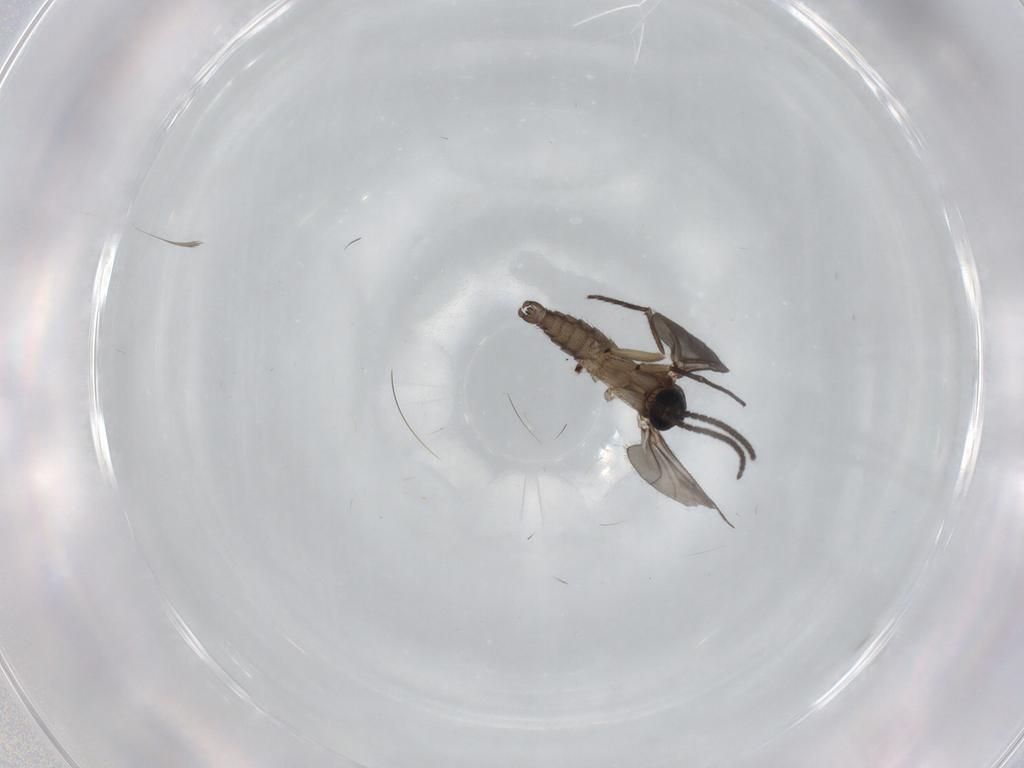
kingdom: Animalia
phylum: Arthropoda
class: Insecta
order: Diptera
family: Sciaridae
